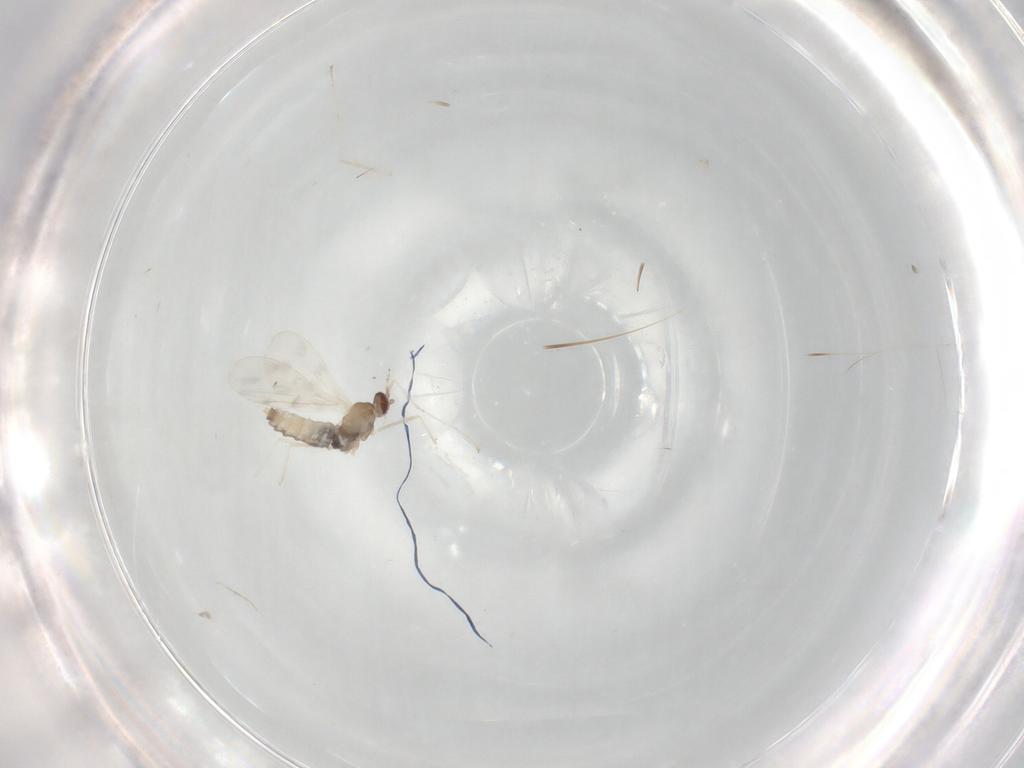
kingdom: Animalia
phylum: Arthropoda
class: Insecta
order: Diptera
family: Cecidomyiidae
